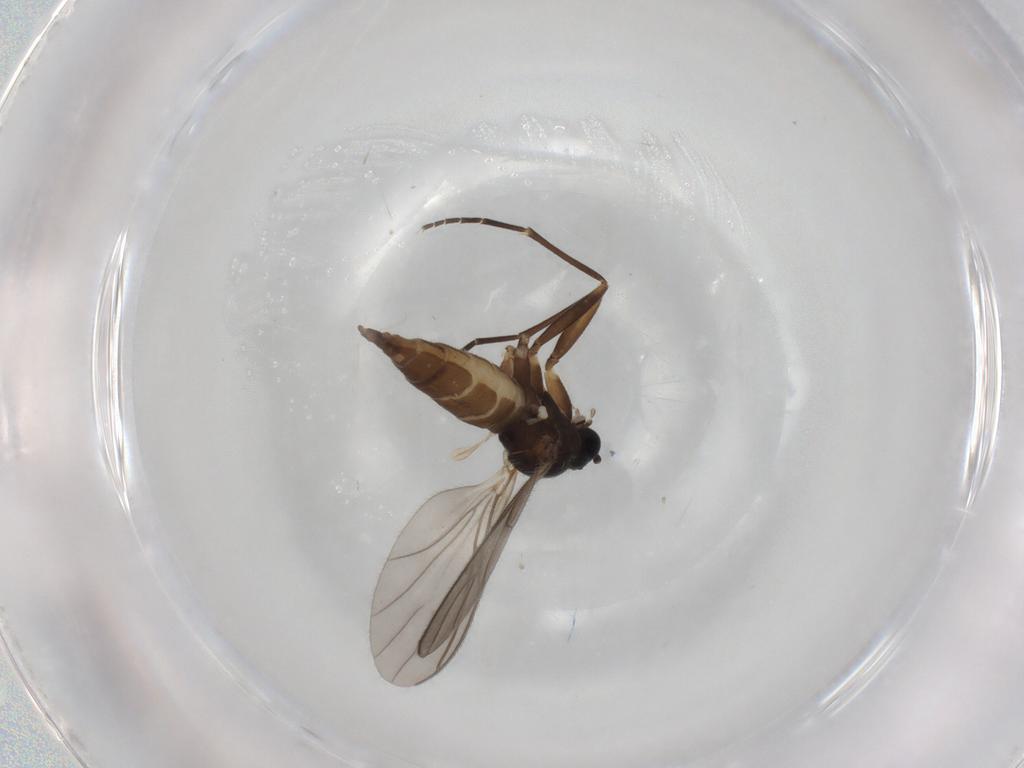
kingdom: Animalia
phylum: Arthropoda
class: Insecta
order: Diptera
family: Sciaridae
